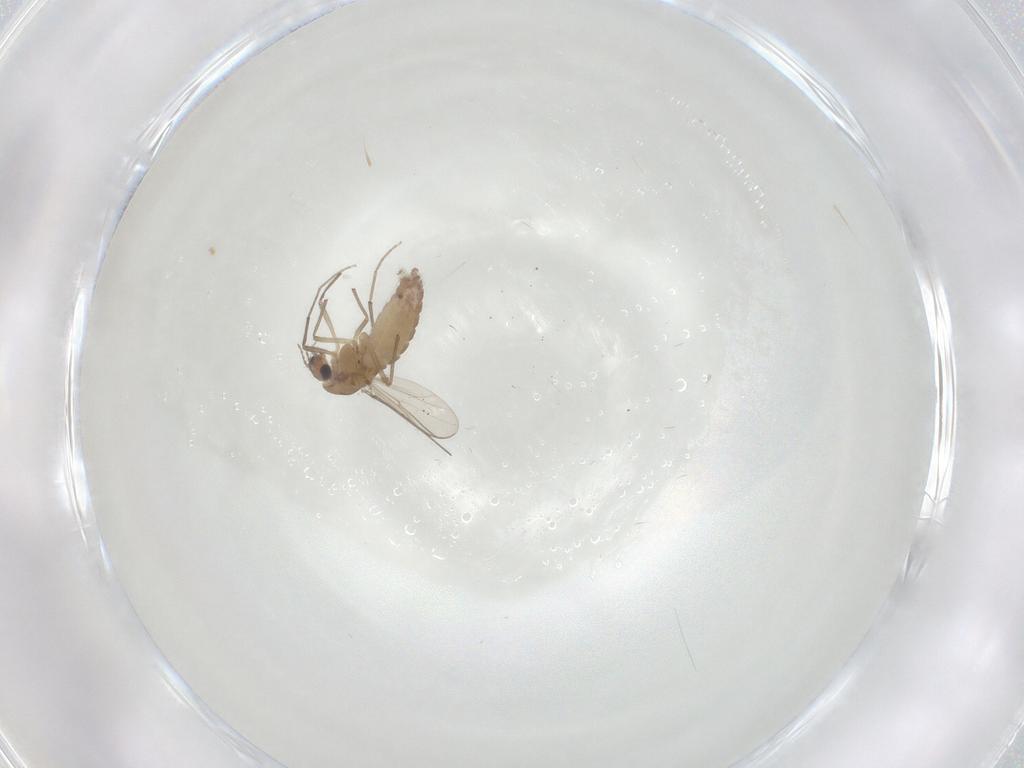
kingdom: Animalia
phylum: Arthropoda
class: Insecta
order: Diptera
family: Chironomidae
